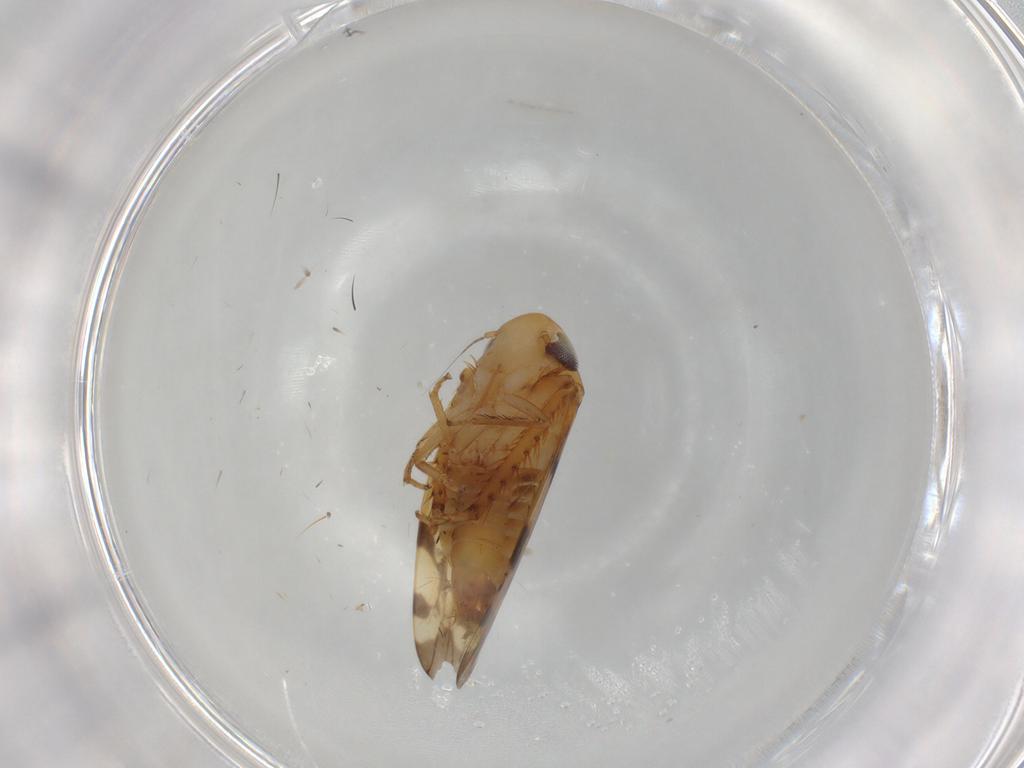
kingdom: Animalia
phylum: Arthropoda
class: Insecta
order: Hemiptera
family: Cicadellidae
